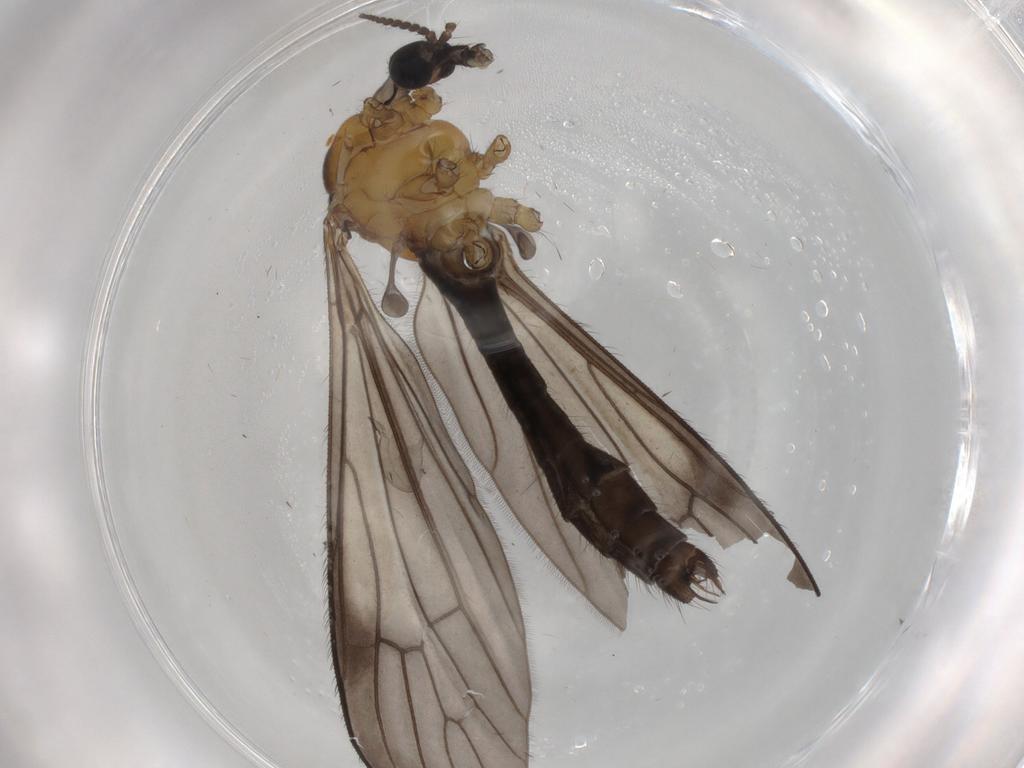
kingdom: Animalia
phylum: Arthropoda
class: Insecta
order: Diptera
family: Limoniidae
